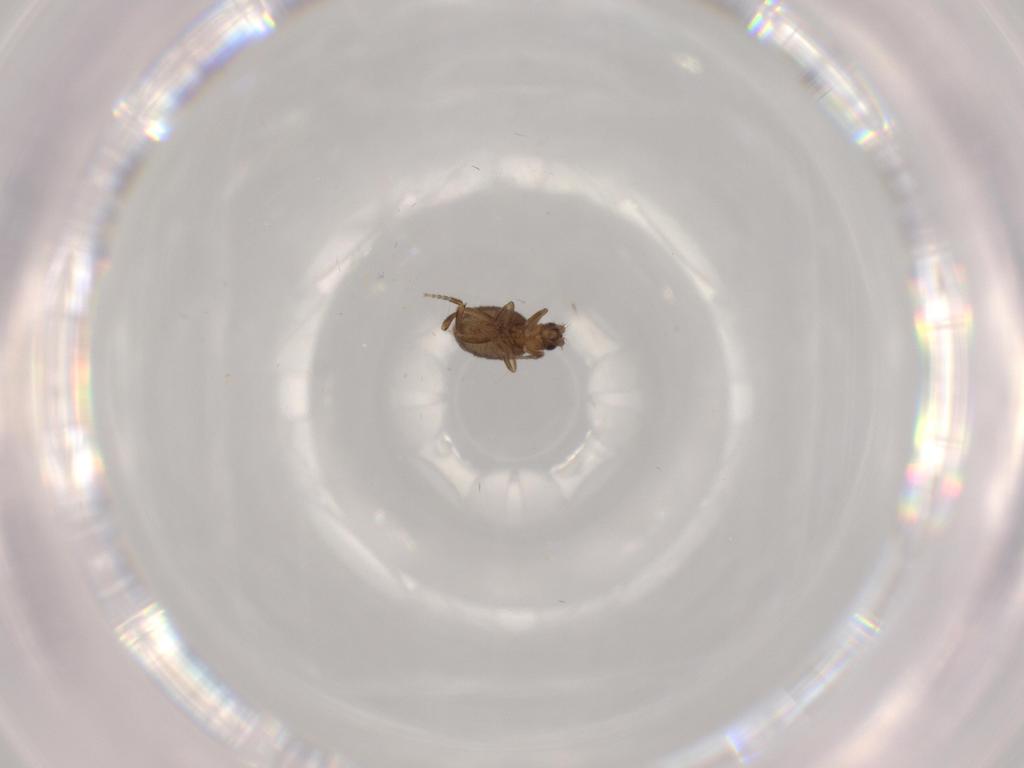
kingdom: Animalia
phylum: Arthropoda
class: Insecta
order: Diptera
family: Phoridae
